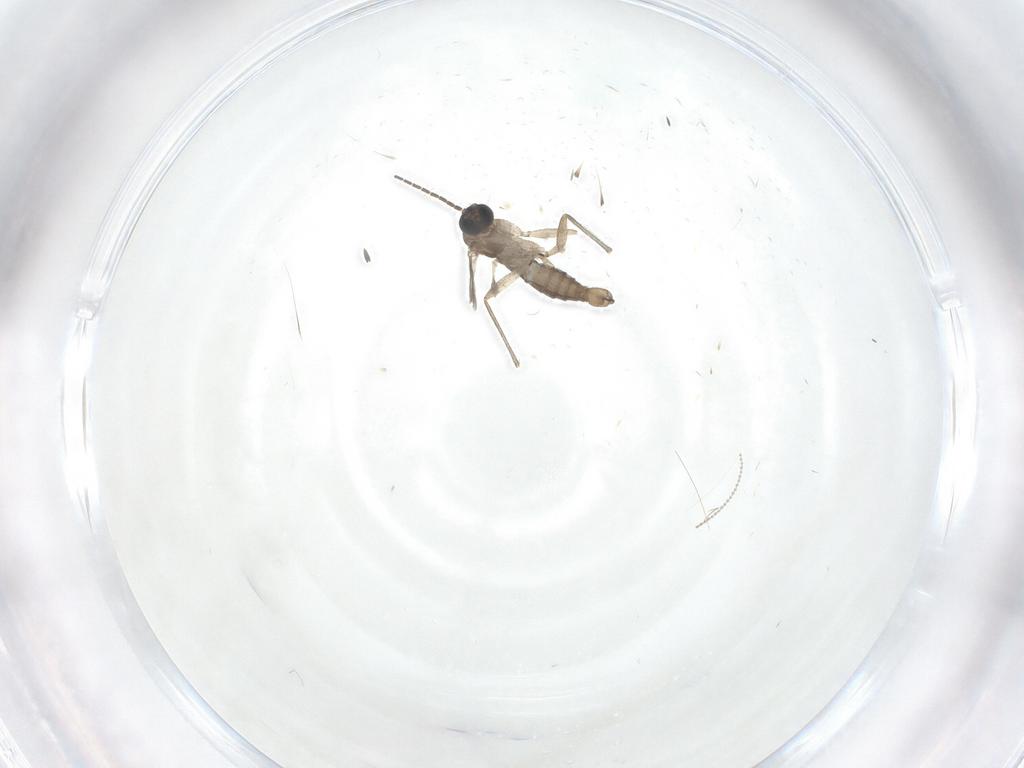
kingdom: Animalia
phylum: Arthropoda
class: Insecta
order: Diptera
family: Cecidomyiidae
